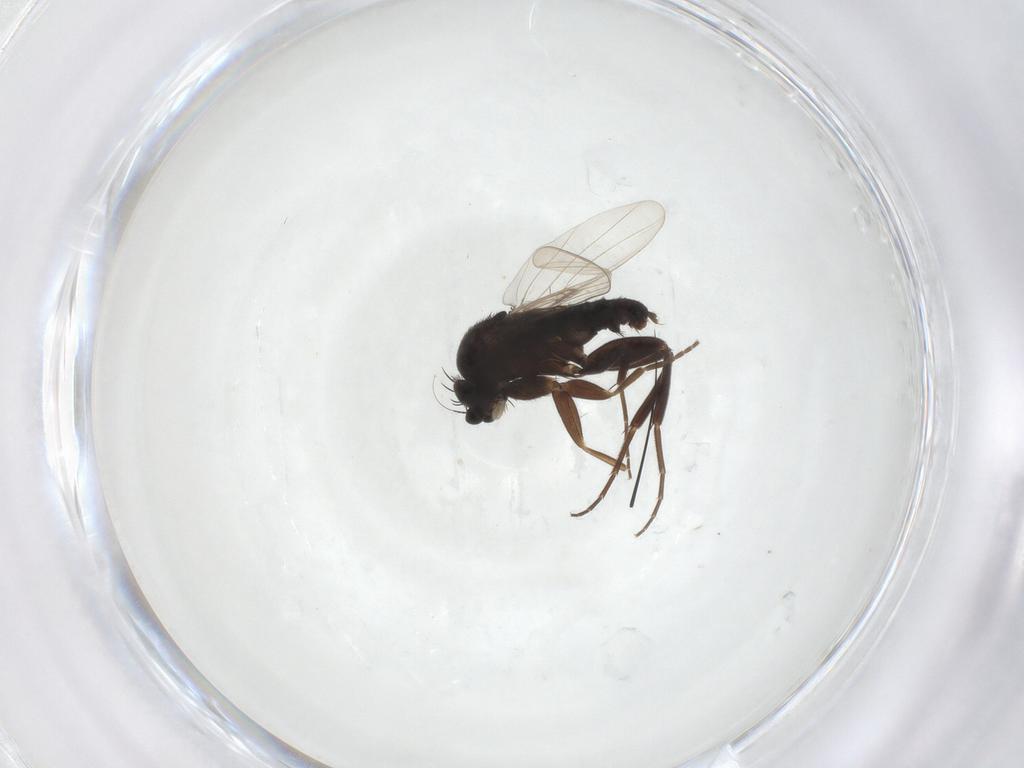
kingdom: Animalia
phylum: Arthropoda
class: Insecta
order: Diptera
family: Phoridae
